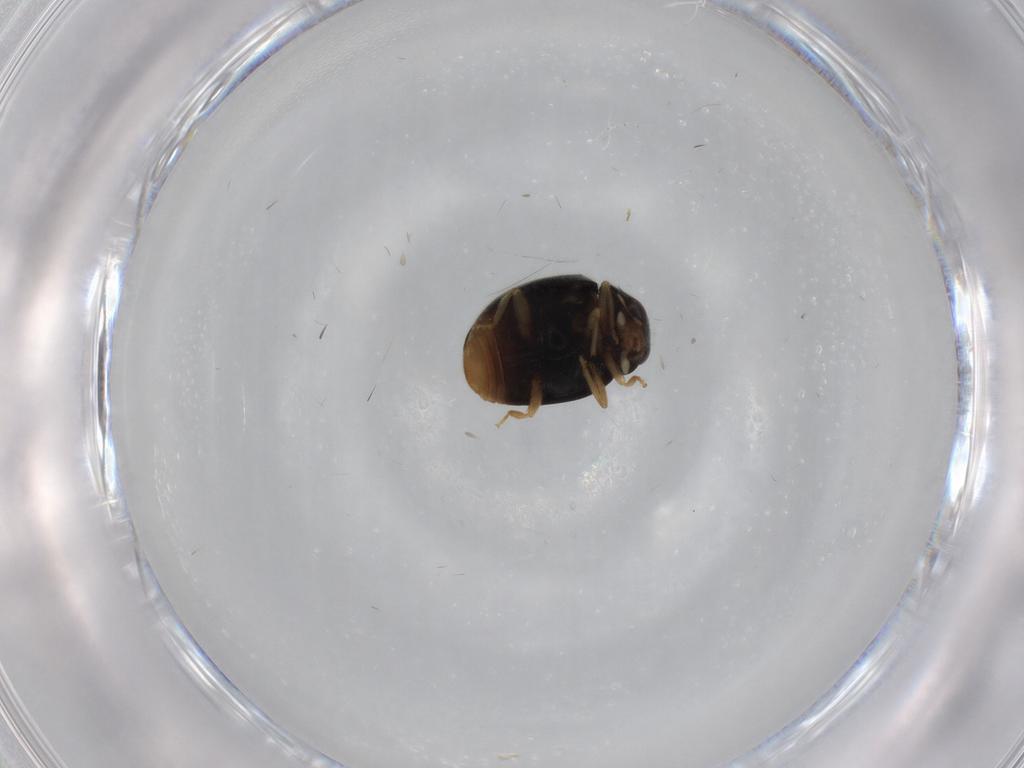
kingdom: Animalia
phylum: Arthropoda
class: Insecta
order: Coleoptera
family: Coccinellidae
